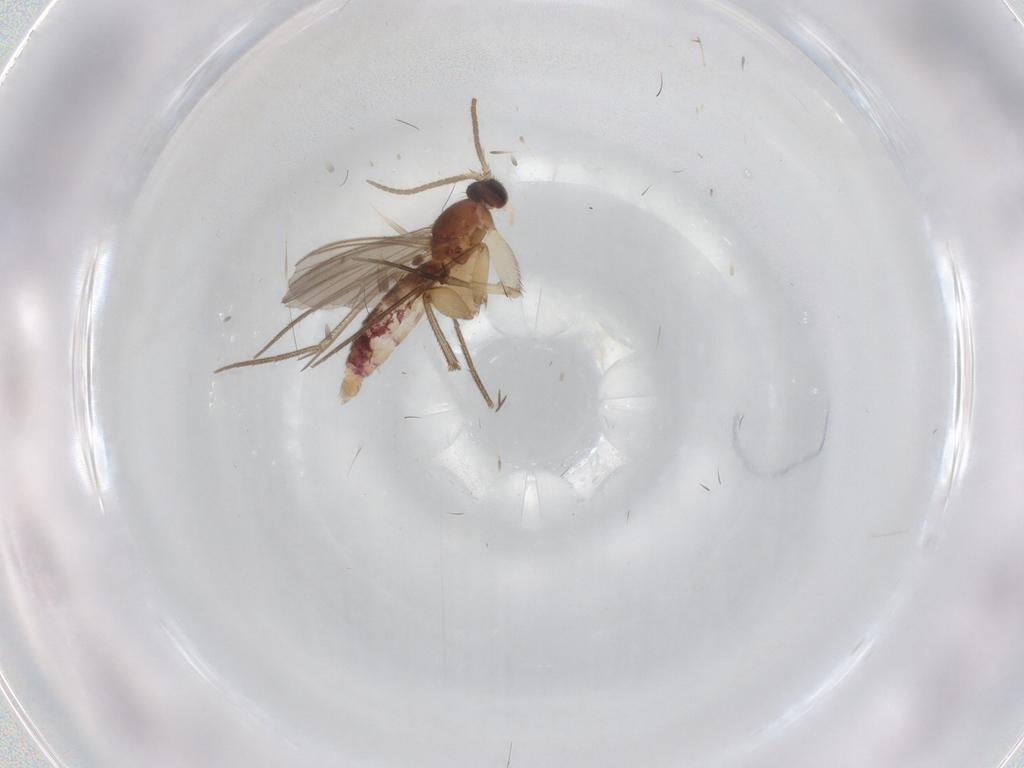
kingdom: Animalia
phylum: Arthropoda
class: Insecta
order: Diptera
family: Mycetophilidae
